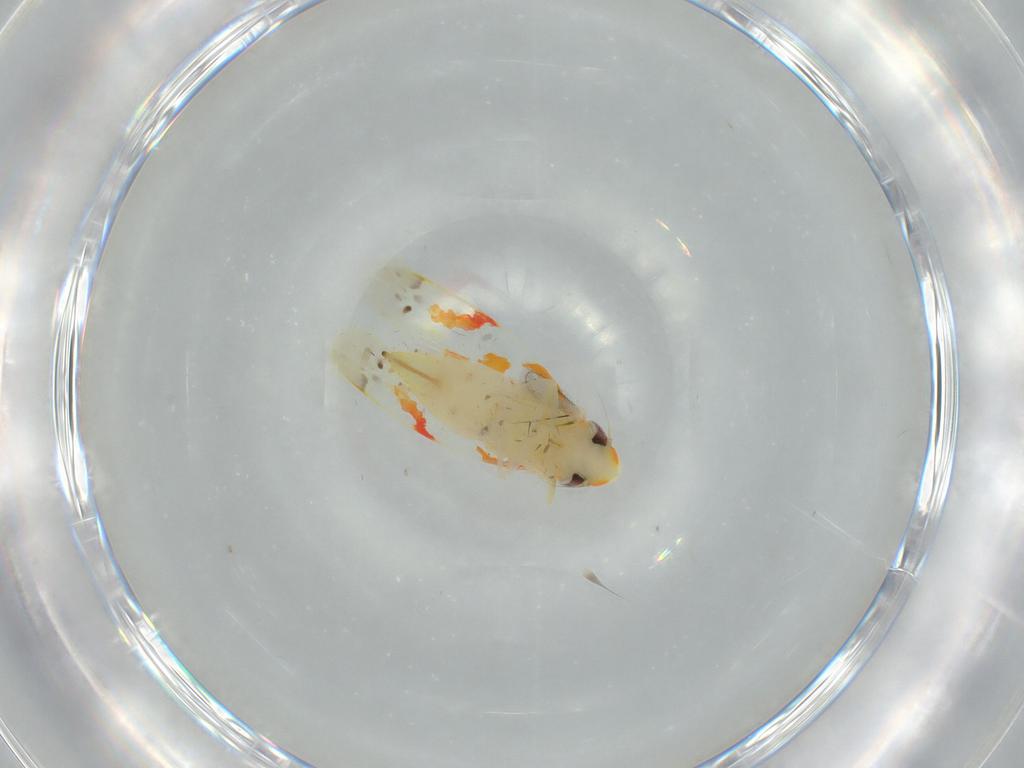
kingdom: Animalia
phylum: Arthropoda
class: Insecta
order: Hemiptera
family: Cicadellidae
